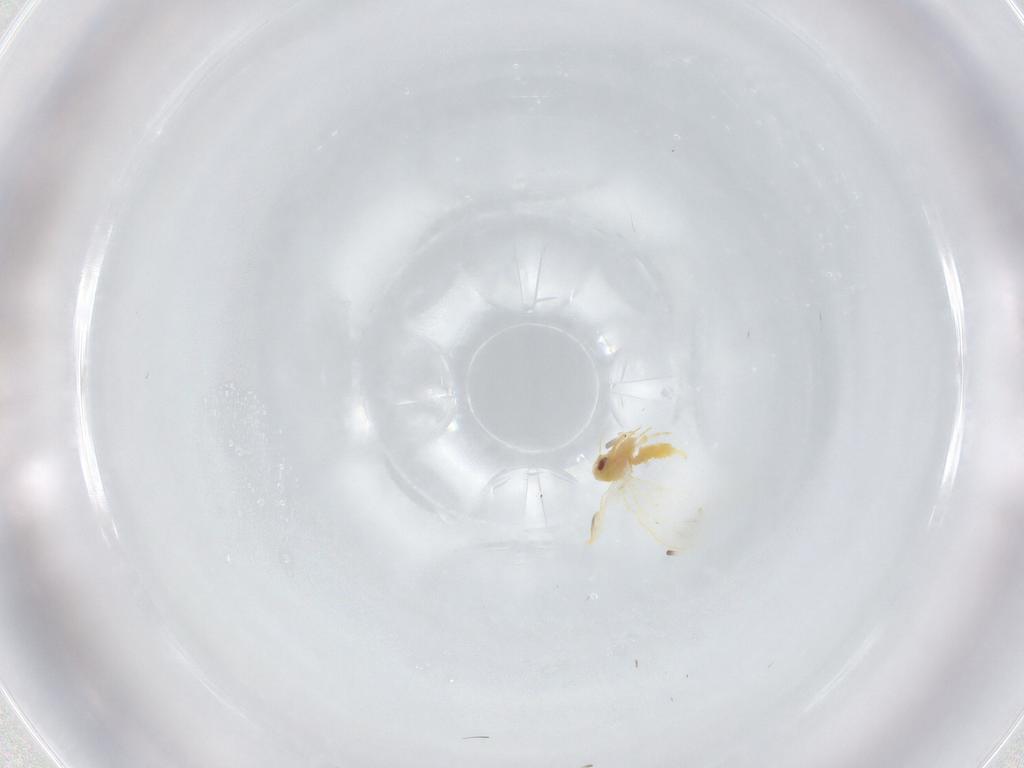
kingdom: Animalia
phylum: Arthropoda
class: Insecta
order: Hemiptera
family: Aleyrodidae
